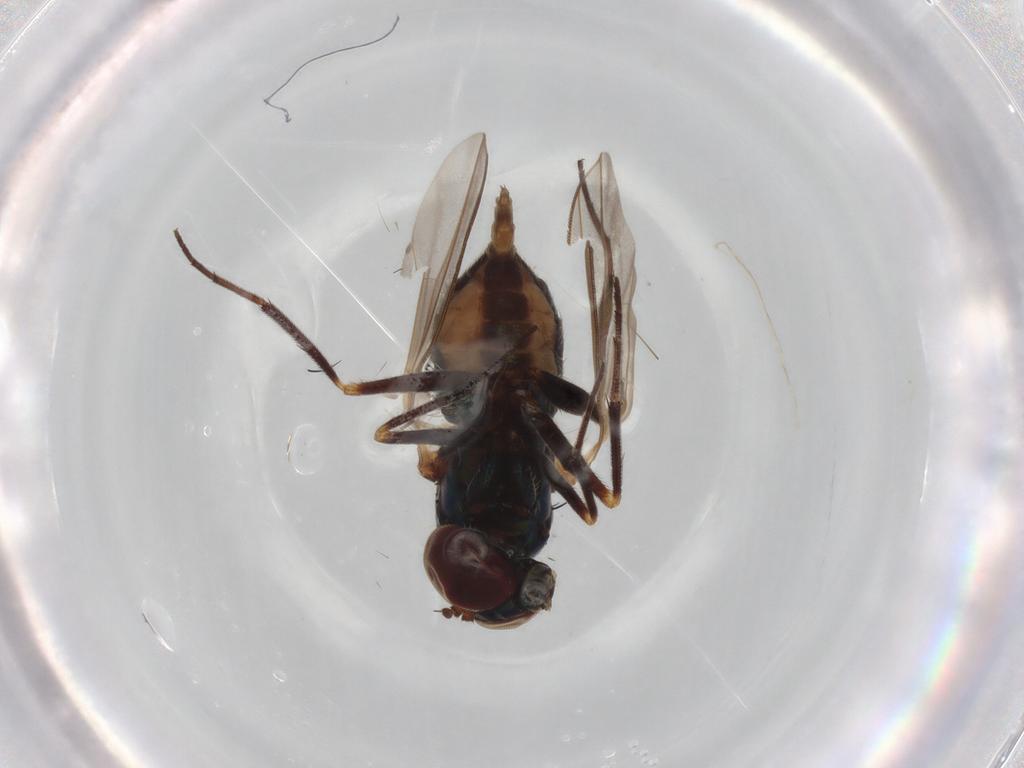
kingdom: Animalia
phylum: Arthropoda
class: Insecta
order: Diptera
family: Dolichopodidae
